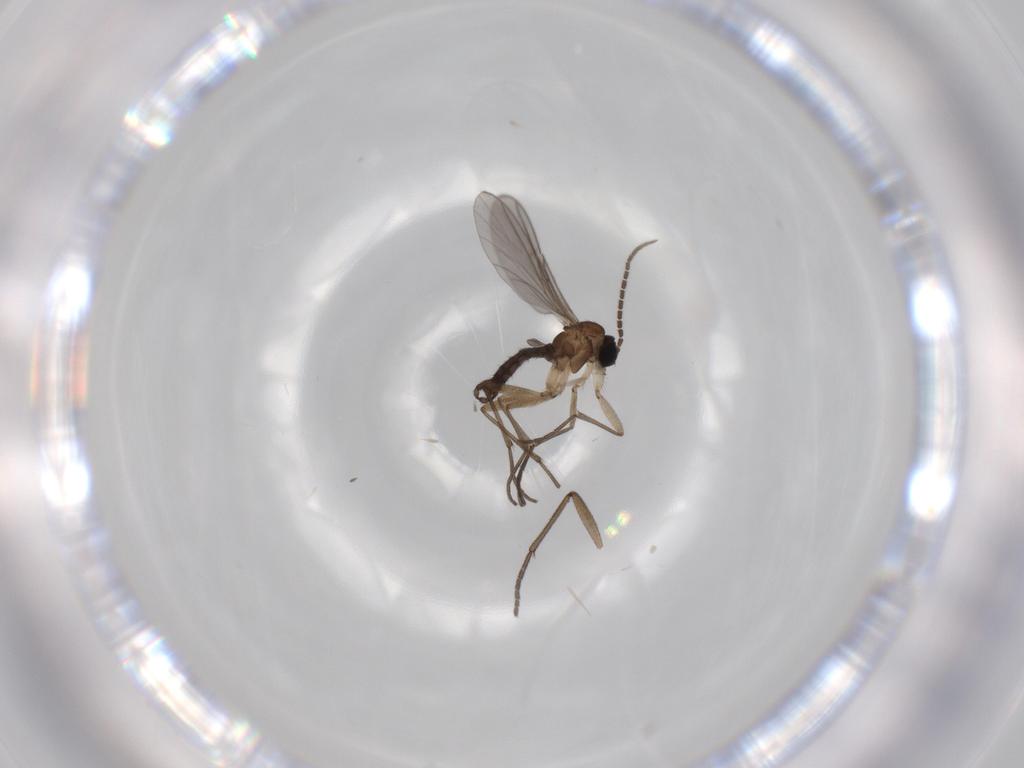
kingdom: Animalia
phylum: Arthropoda
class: Insecta
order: Diptera
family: Sciaridae
